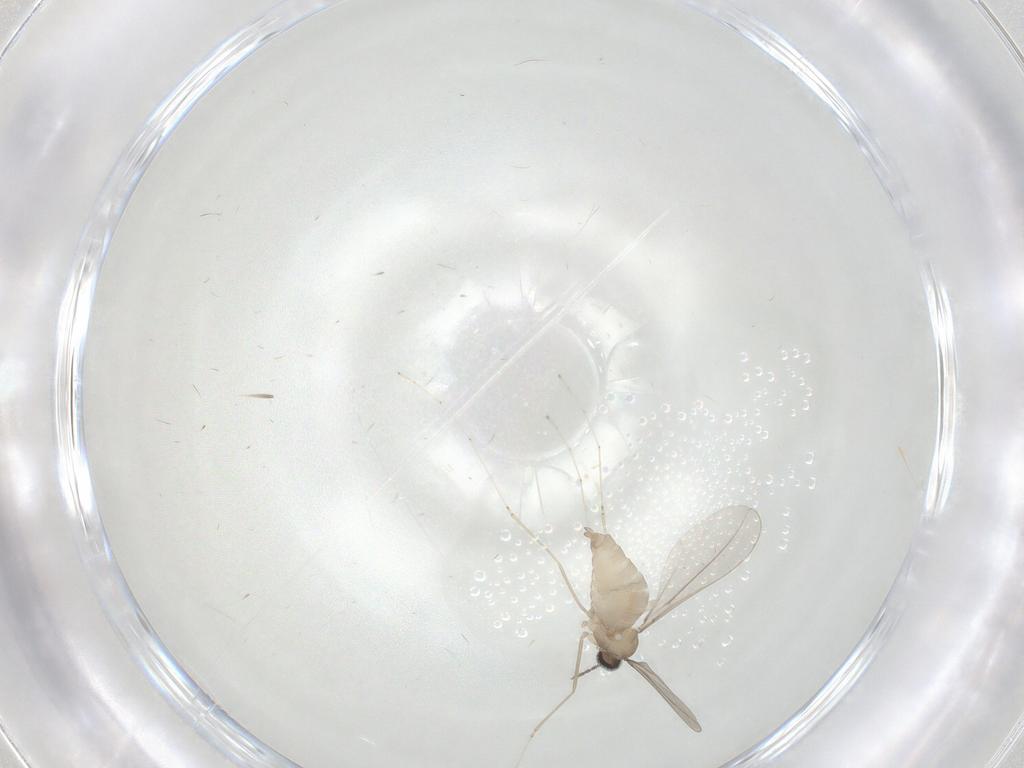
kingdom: Animalia
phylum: Arthropoda
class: Insecta
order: Diptera
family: Cecidomyiidae
